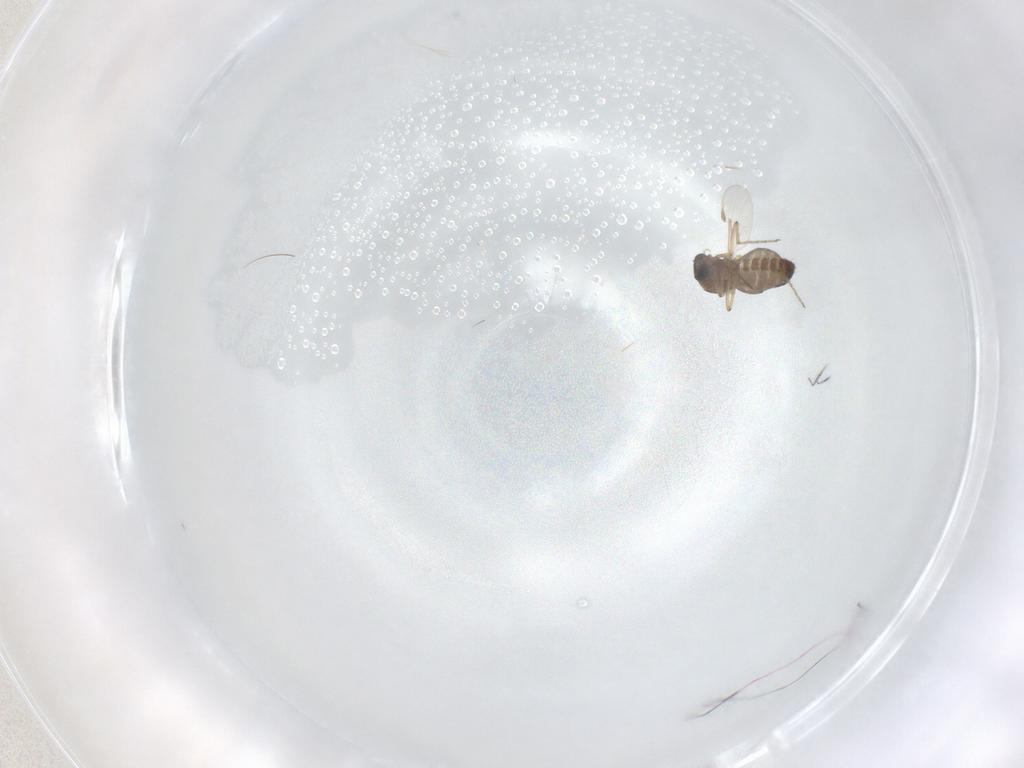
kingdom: Animalia
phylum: Arthropoda
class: Insecta
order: Diptera
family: Ceratopogonidae
